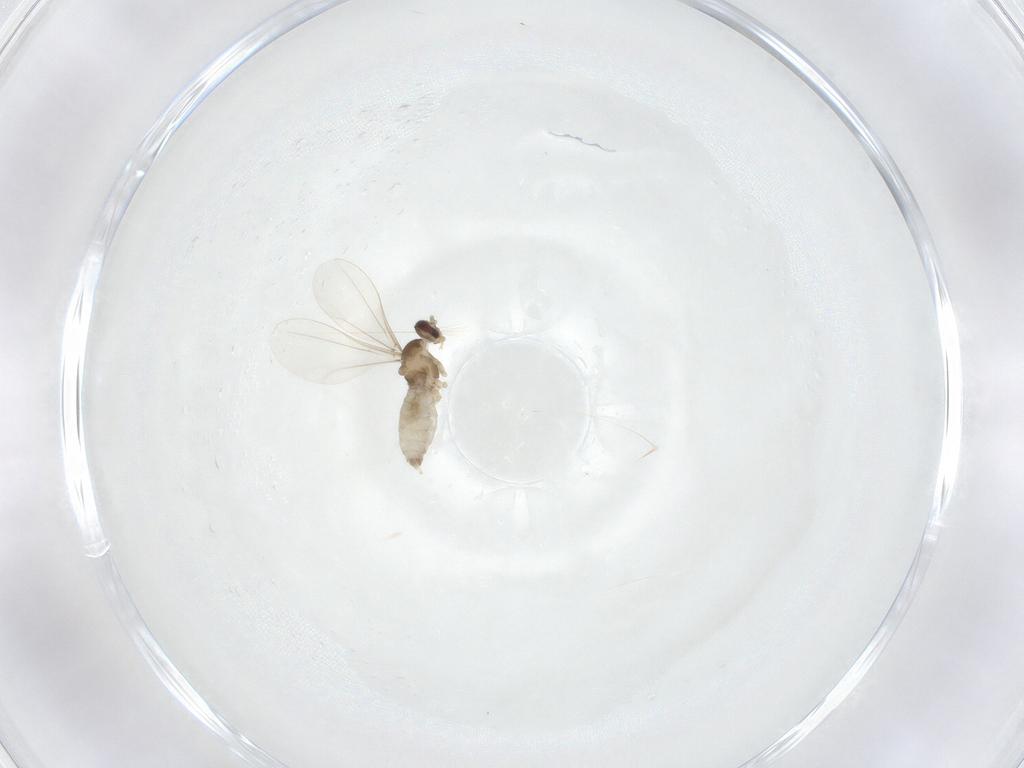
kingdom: Animalia
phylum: Arthropoda
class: Insecta
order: Diptera
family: Cecidomyiidae
